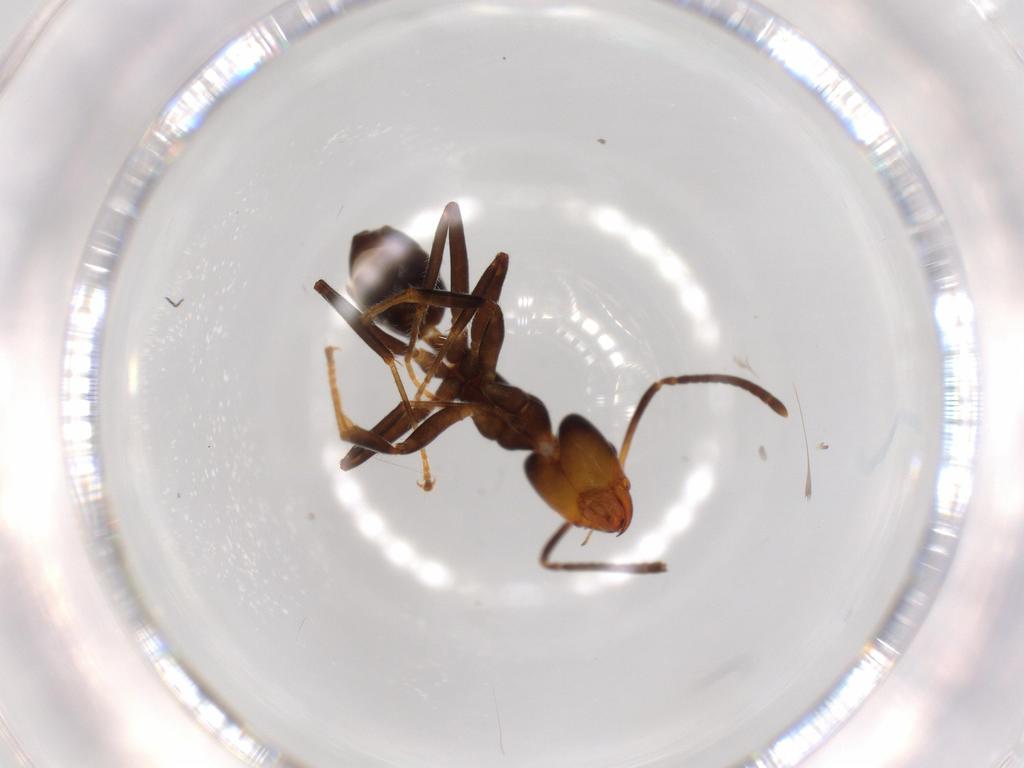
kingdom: Animalia
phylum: Arthropoda
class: Insecta
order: Hymenoptera
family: Formicidae
